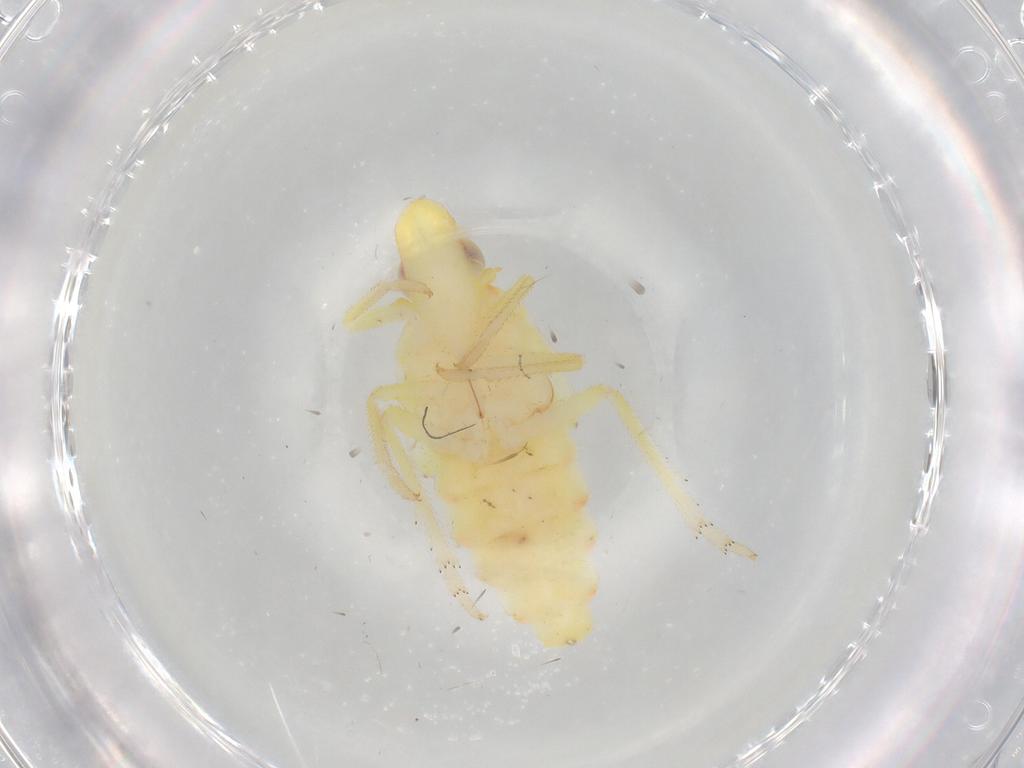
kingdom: Animalia
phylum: Arthropoda
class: Insecta
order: Hemiptera
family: Tropiduchidae
